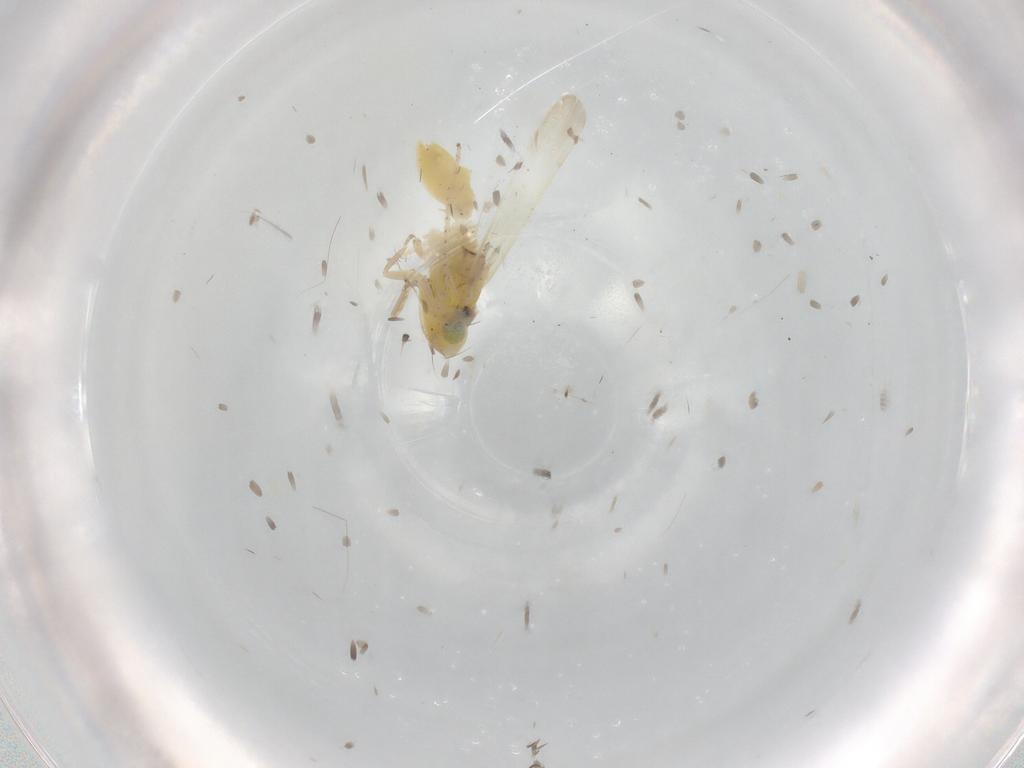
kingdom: Animalia
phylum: Arthropoda
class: Insecta
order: Hemiptera
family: Cicadellidae
